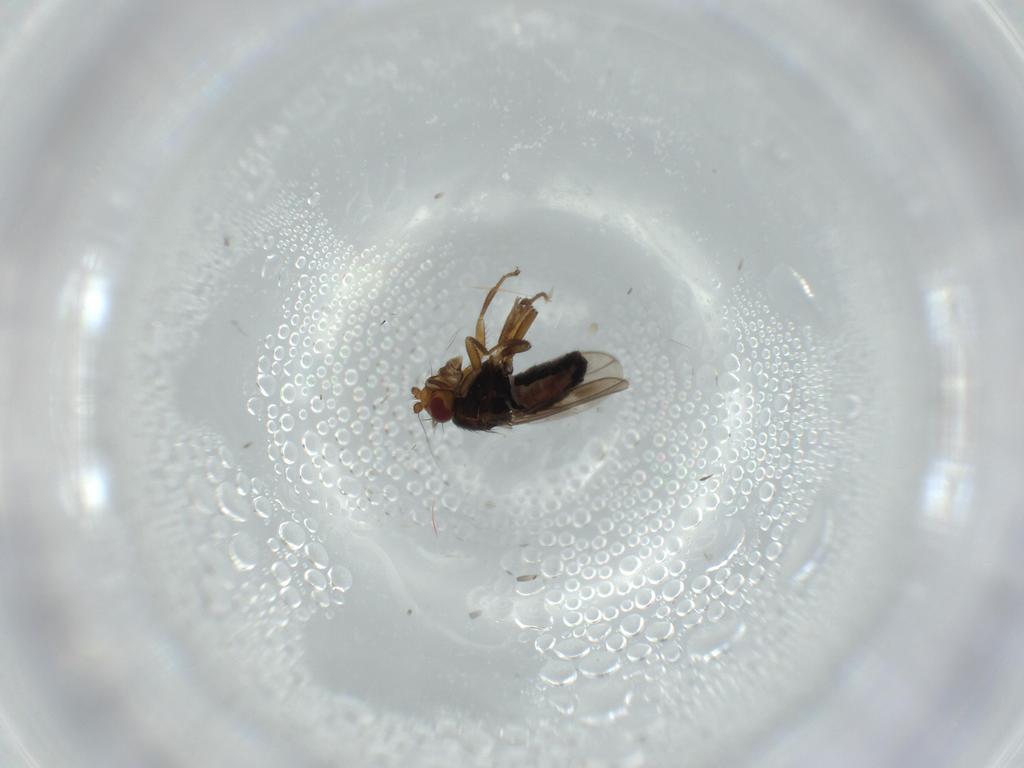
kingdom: Animalia
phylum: Arthropoda
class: Insecta
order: Diptera
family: Sphaeroceridae
